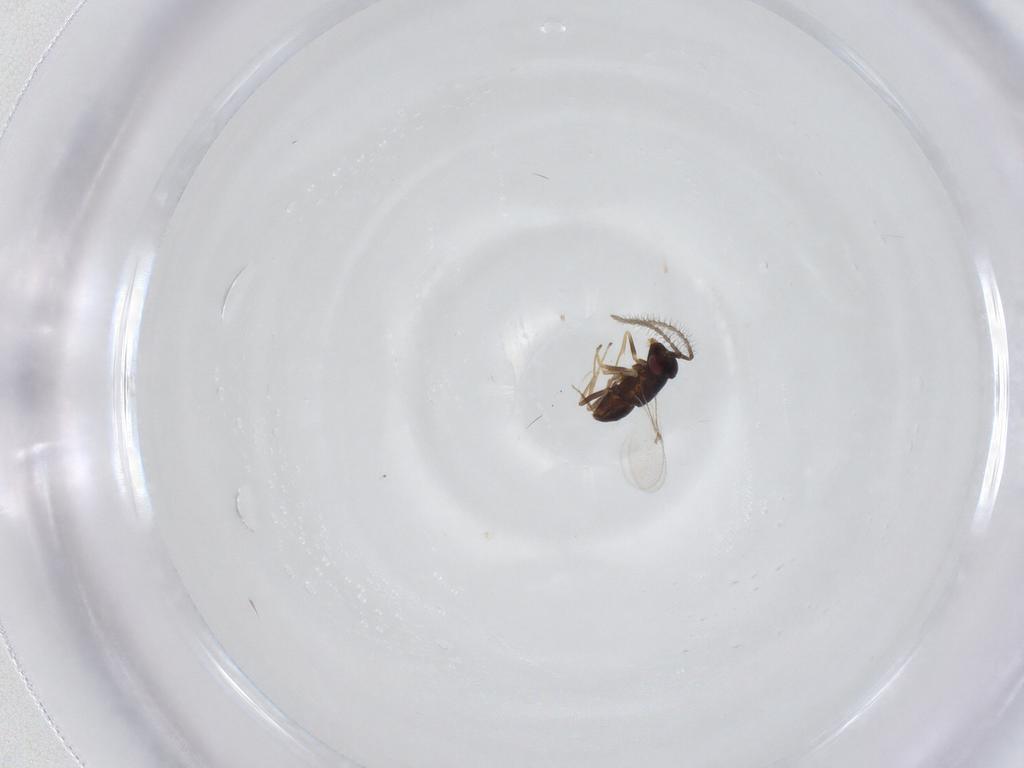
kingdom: Animalia
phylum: Arthropoda
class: Insecta
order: Hymenoptera
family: Encyrtidae
